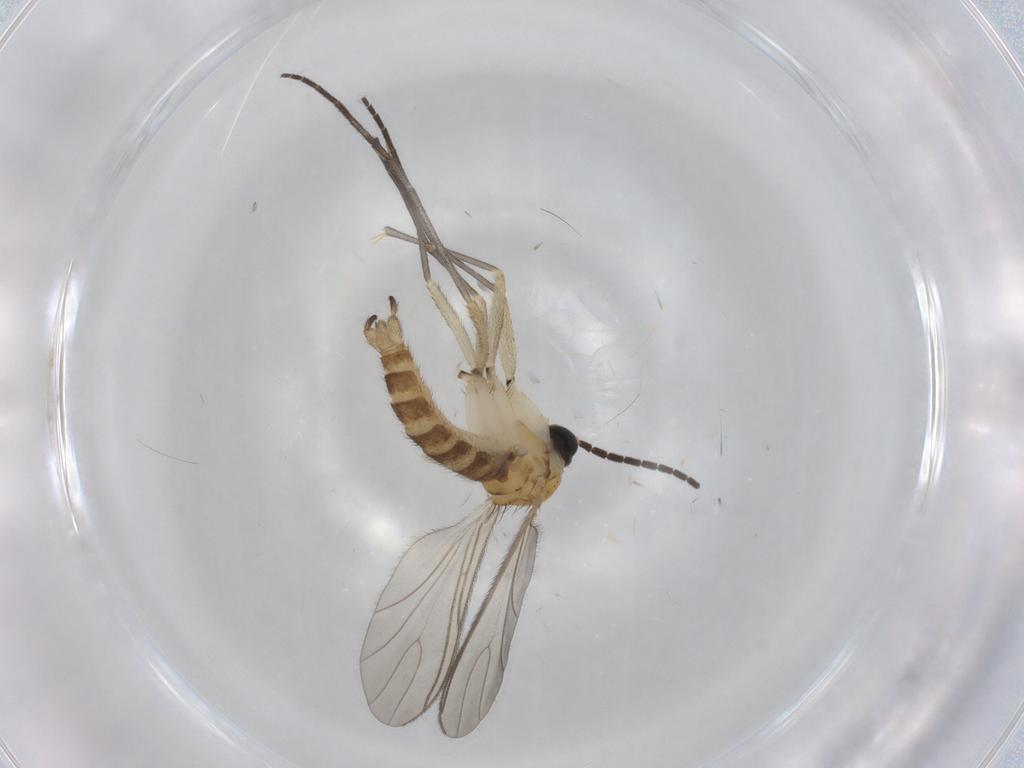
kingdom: Animalia
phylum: Arthropoda
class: Insecta
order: Diptera
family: Sciaridae
